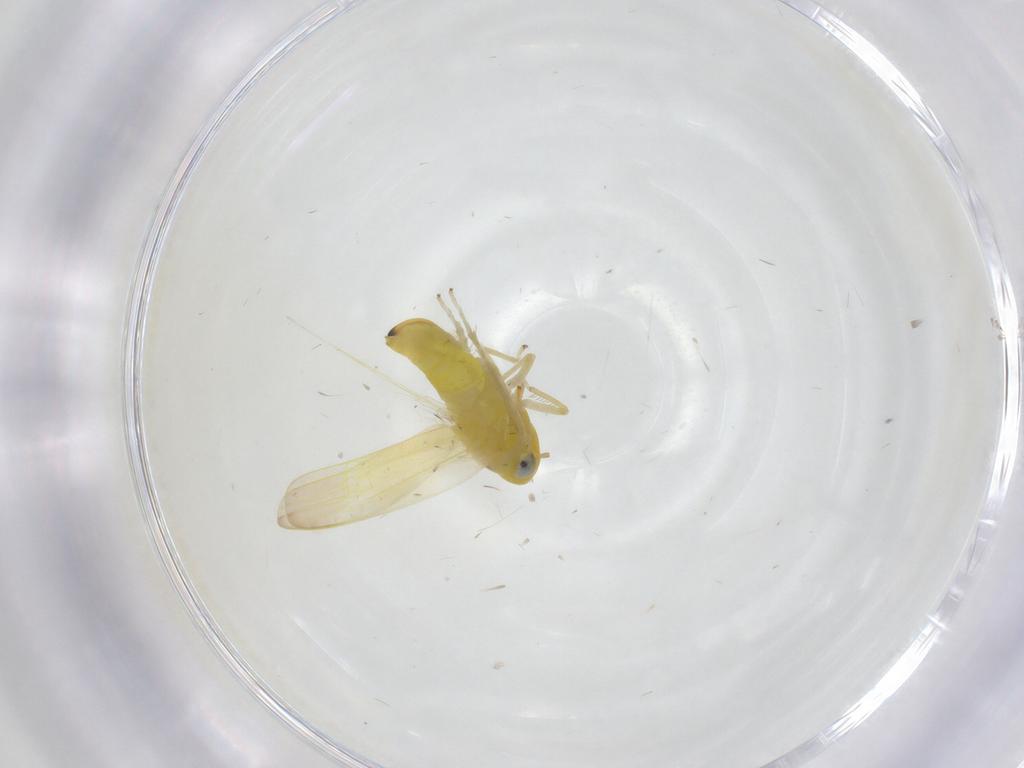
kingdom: Animalia
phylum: Arthropoda
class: Insecta
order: Hemiptera
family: Cicadellidae
